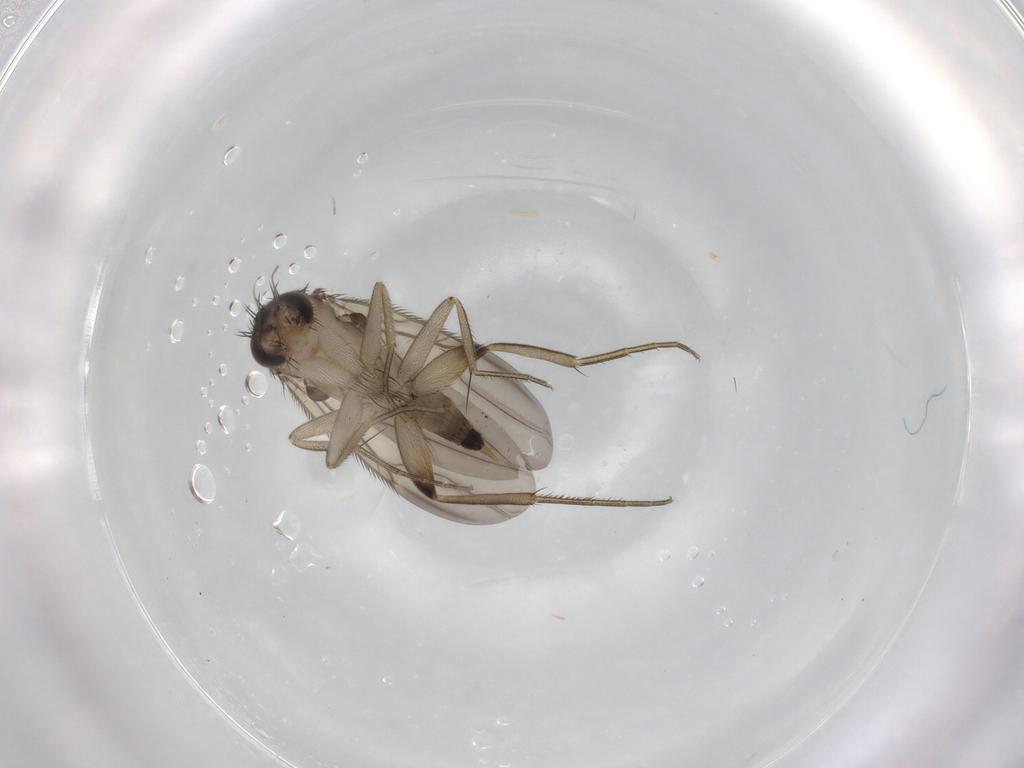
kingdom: Animalia
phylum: Arthropoda
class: Insecta
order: Diptera
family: Phoridae
